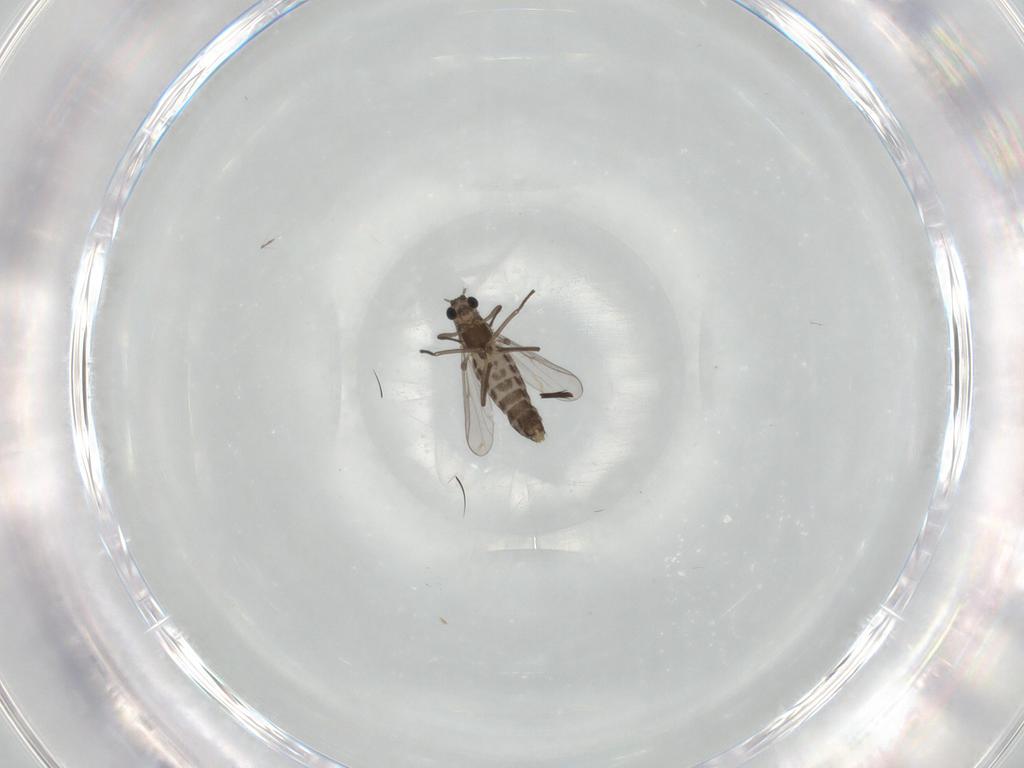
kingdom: Animalia
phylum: Arthropoda
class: Insecta
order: Diptera
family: Chironomidae
